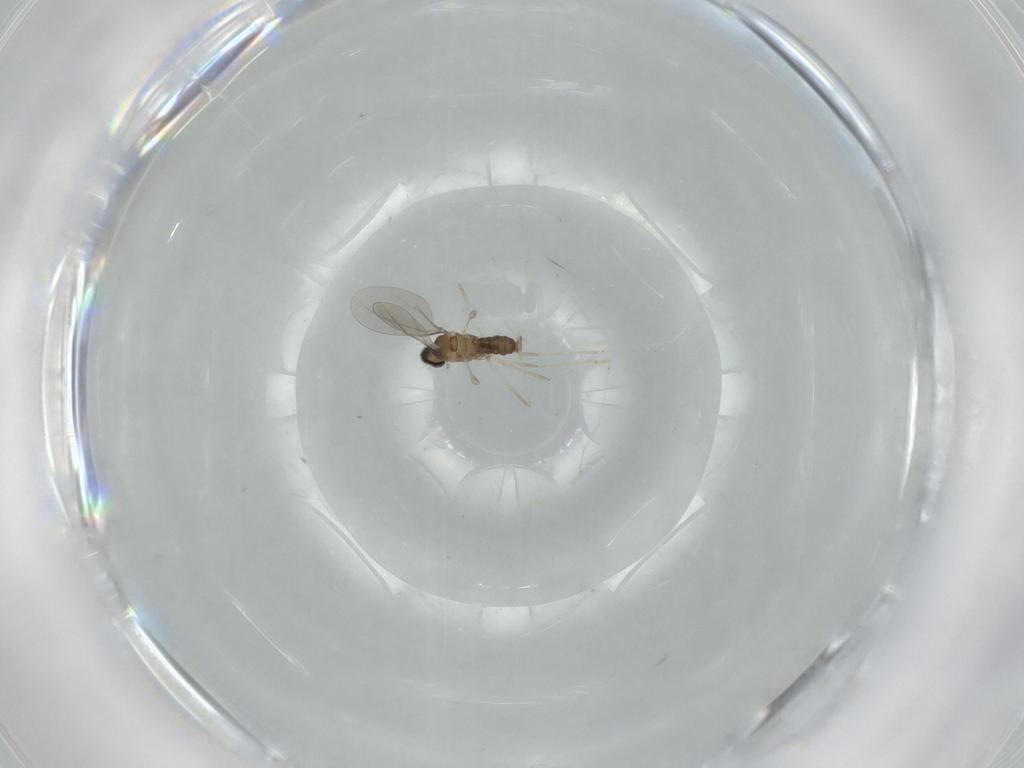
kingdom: Animalia
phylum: Arthropoda
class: Insecta
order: Diptera
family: Cecidomyiidae
